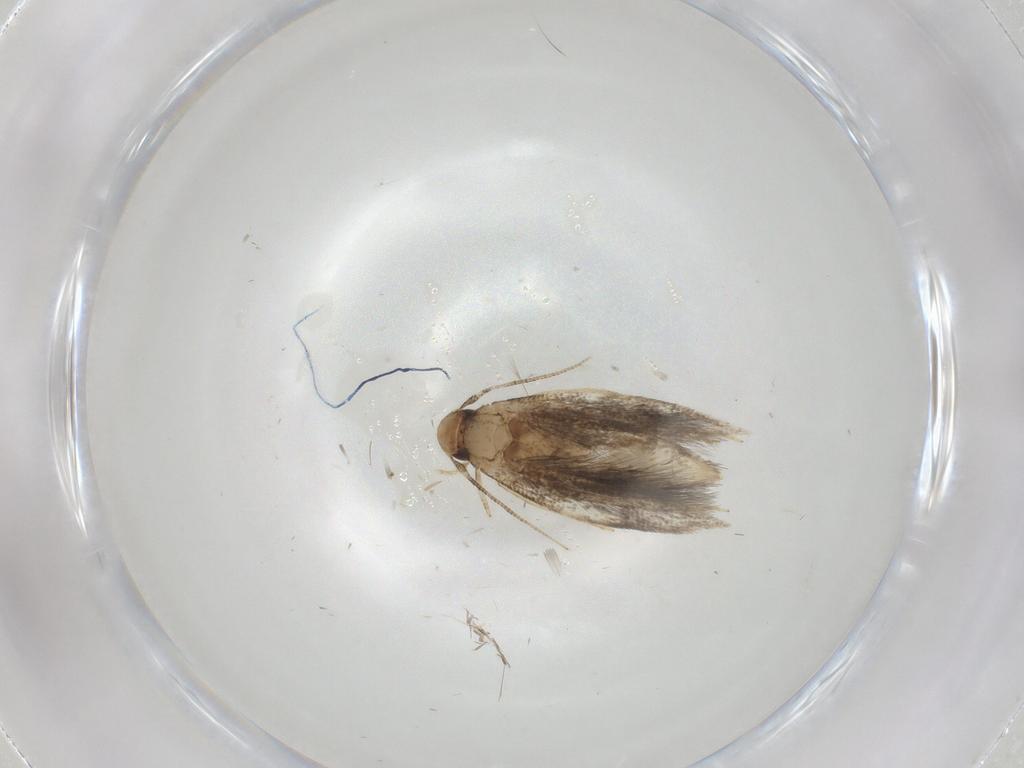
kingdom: Animalia
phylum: Arthropoda
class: Insecta
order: Lepidoptera
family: Gelechiidae
